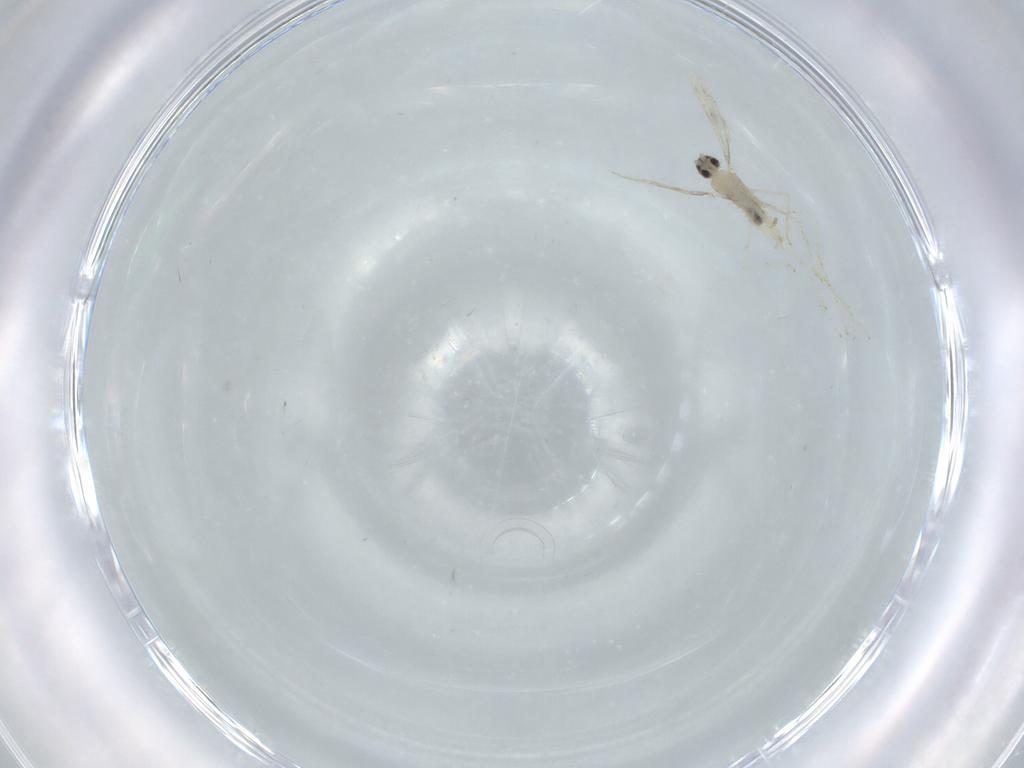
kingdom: Animalia
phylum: Arthropoda
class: Insecta
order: Diptera
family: Cecidomyiidae
